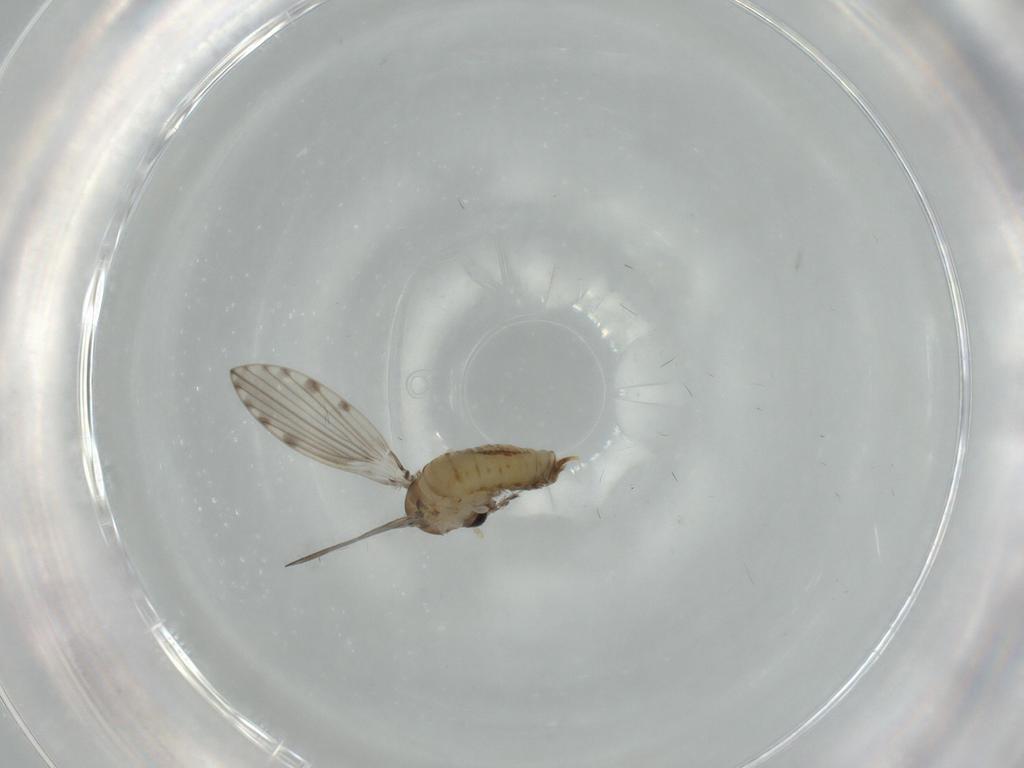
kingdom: Animalia
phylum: Arthropoda
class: Insecta
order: Diptera
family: Psychodidae
